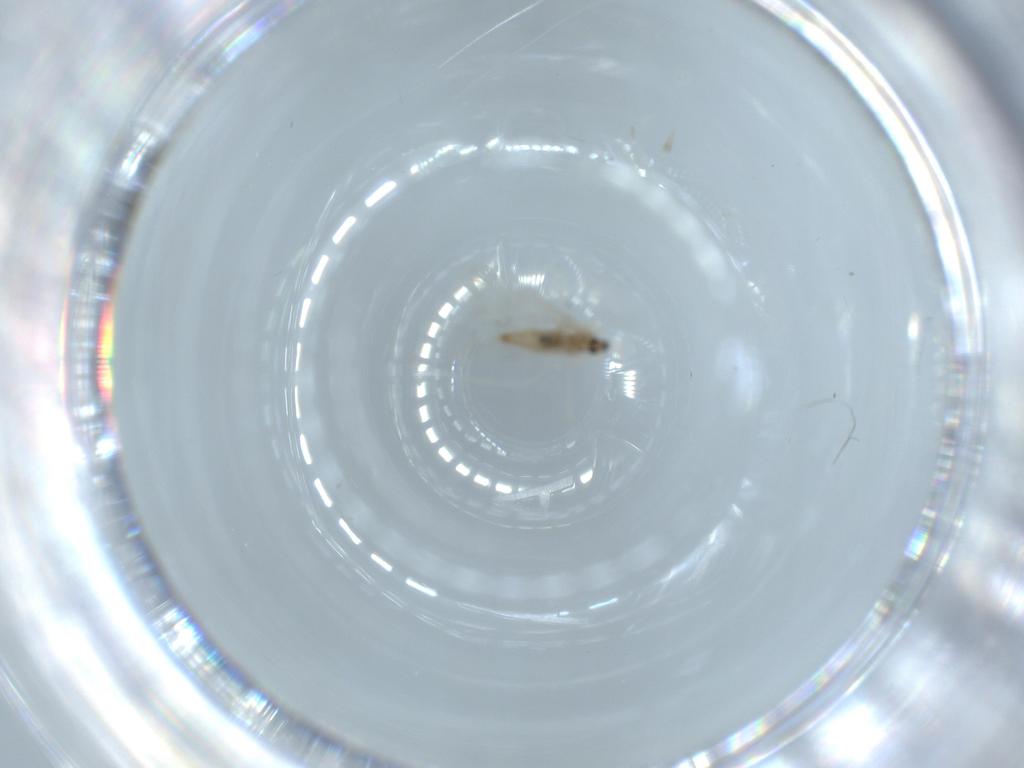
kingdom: Animalia
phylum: Arthropoda
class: Insecta
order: Diptera
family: Cecidomyiidae
